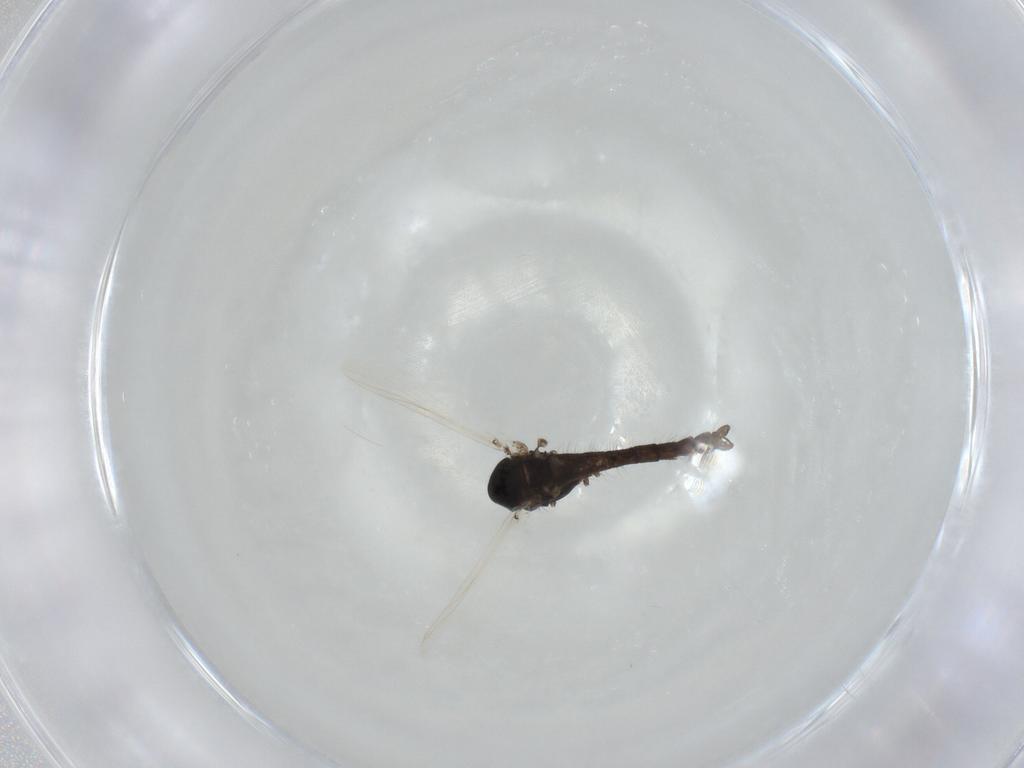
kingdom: Animalia
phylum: Arthropoda
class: Insecta
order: Diptera
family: Chironomidae
